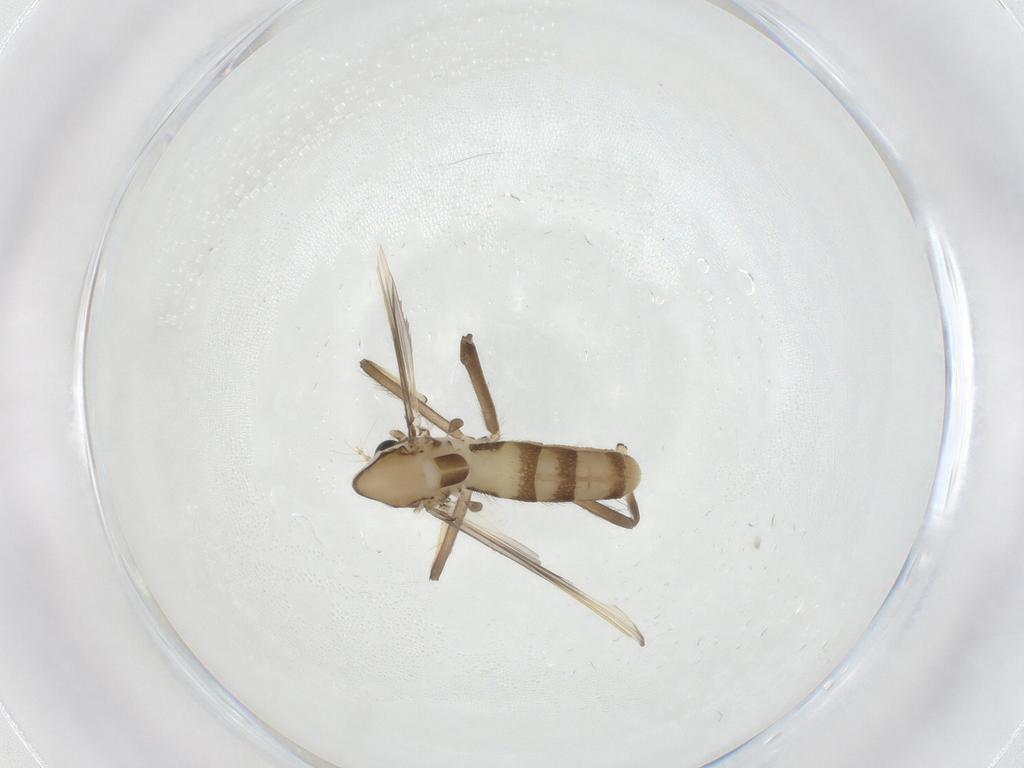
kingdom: Animalia
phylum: Arthropoda
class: Insecta
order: Diptera
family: Chironomidae
